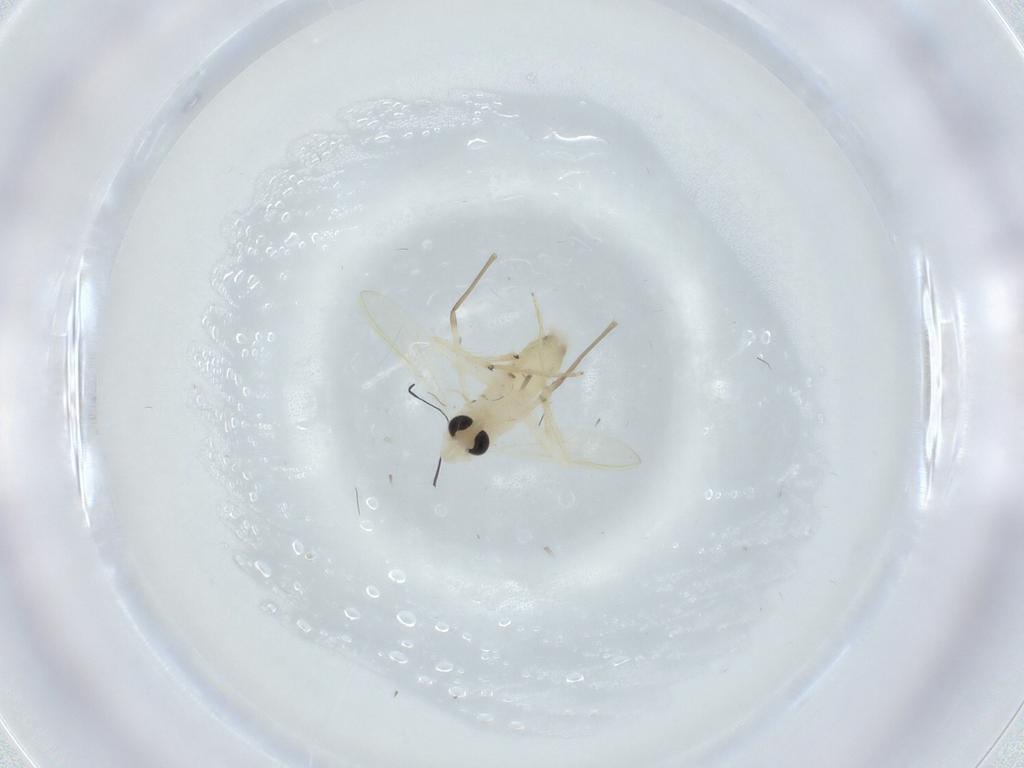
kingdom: Animalia
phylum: Arthropoda
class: Insecta
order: Diptera
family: Chironomidae
